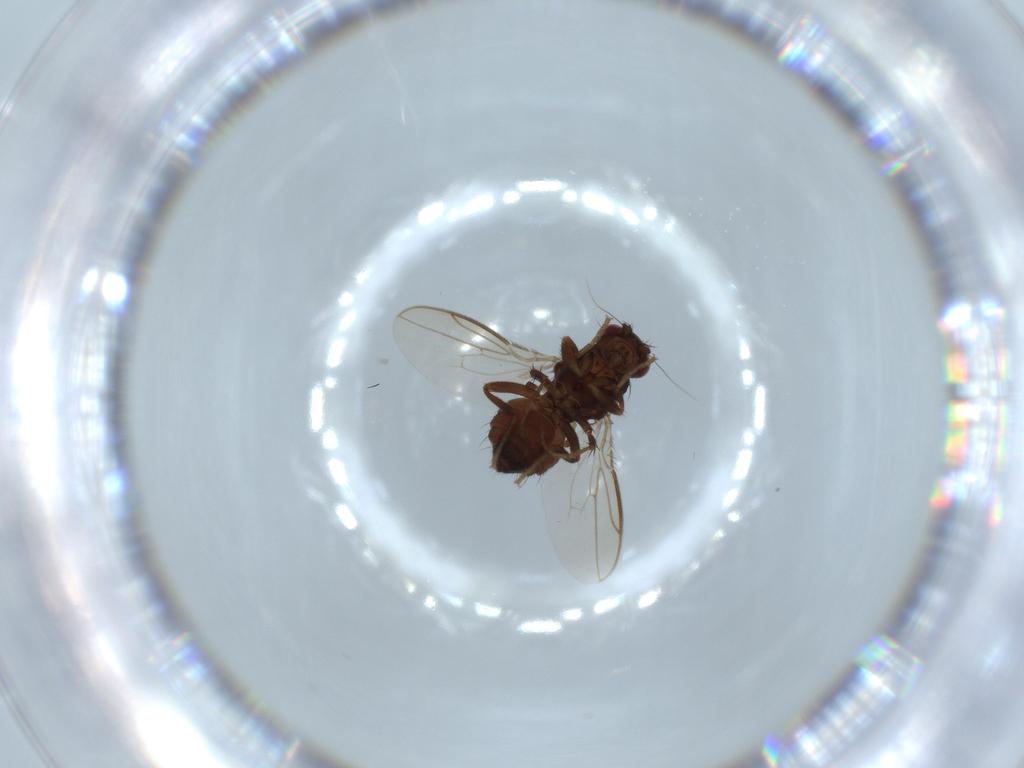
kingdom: Animalia
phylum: Arthropoda
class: Insecta
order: Diptera
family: Sphaeroceridae
